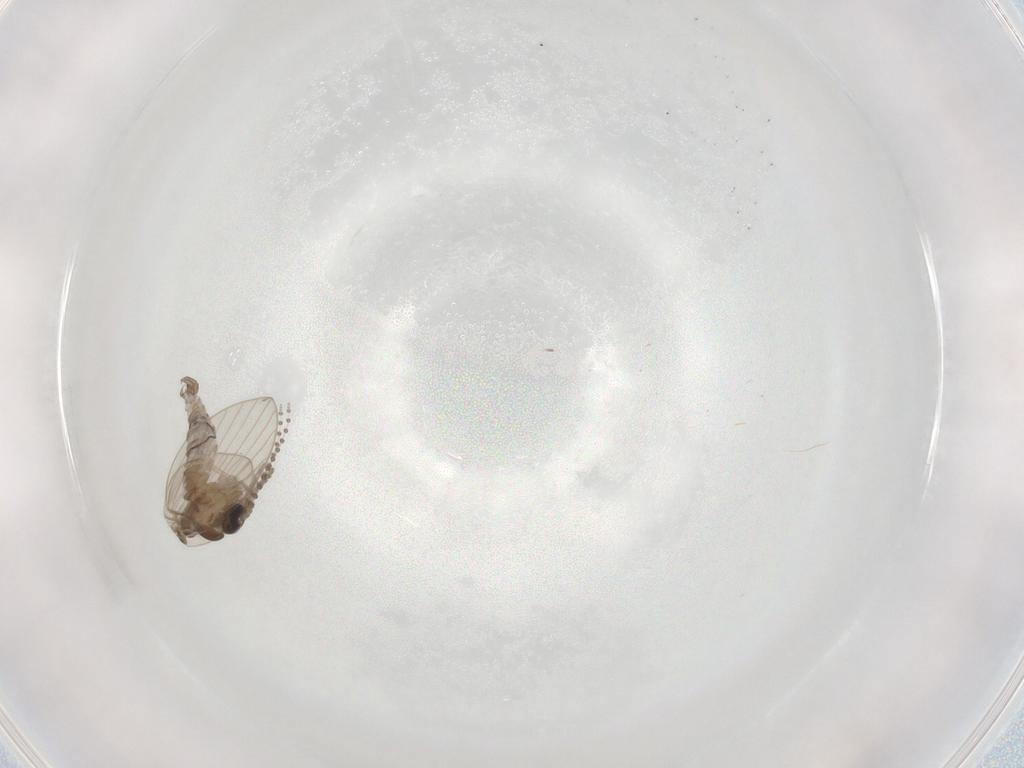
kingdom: Animalia
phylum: Arthropoda
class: Insecta
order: Diptera
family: Psychodidae
